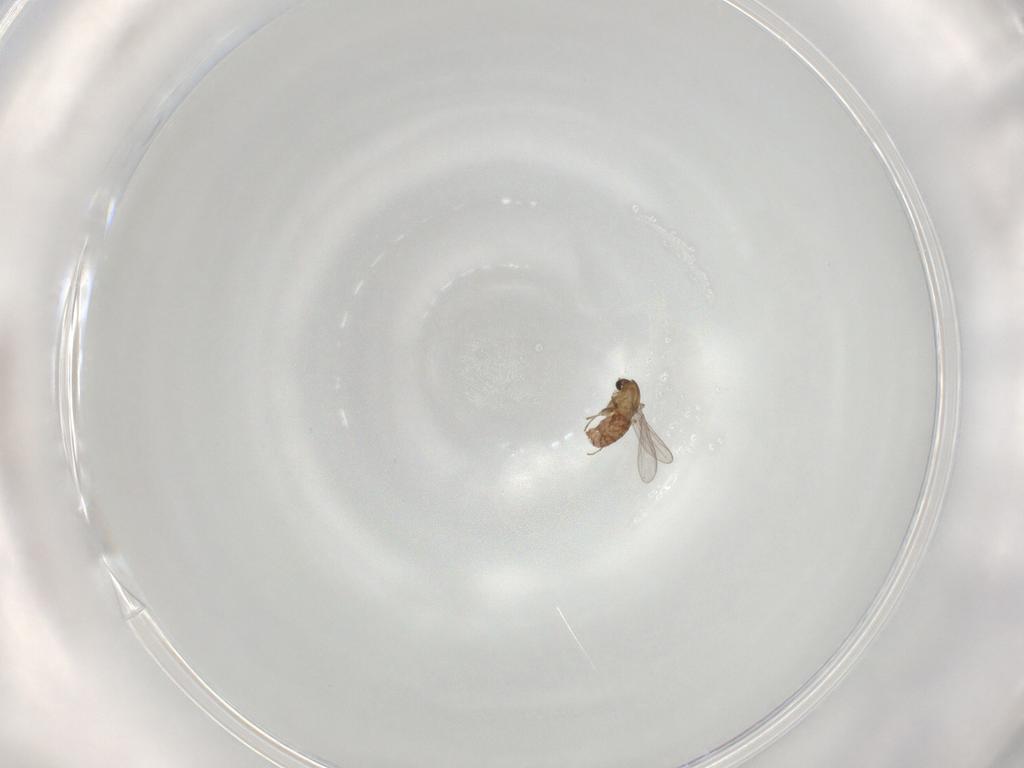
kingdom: Animalia
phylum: Arthropoda
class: Insecta
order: Diptera
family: Chironomidae
